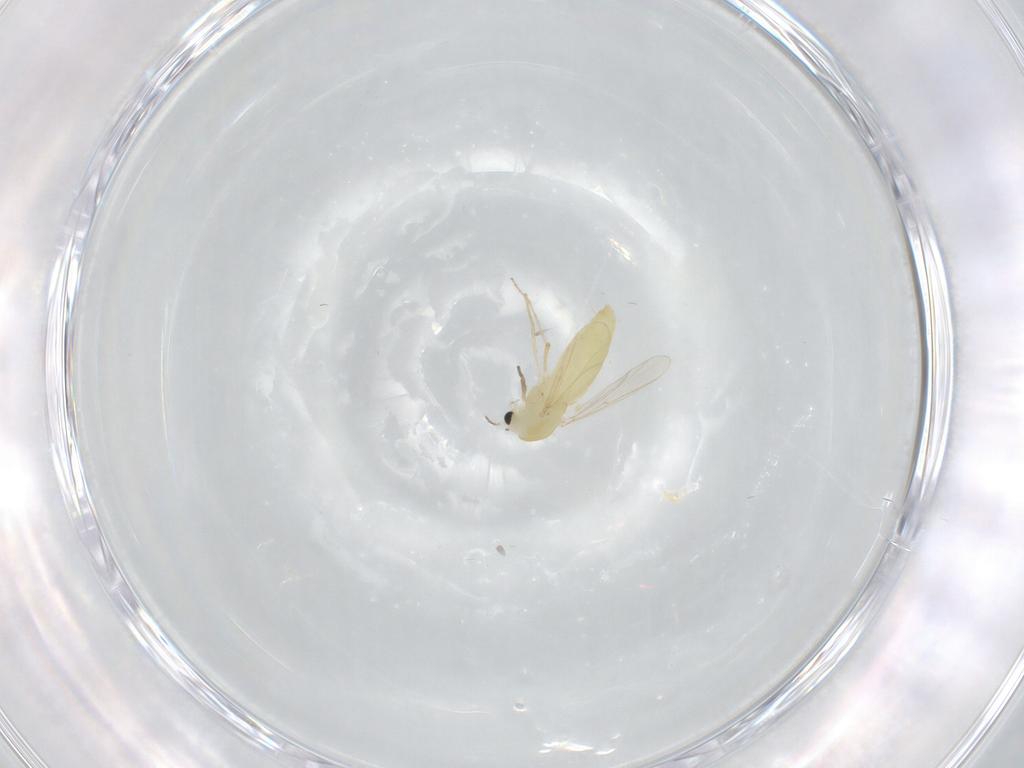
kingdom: Animalia
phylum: Arthropoda
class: Insecta
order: Diptera
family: Chironomidae
